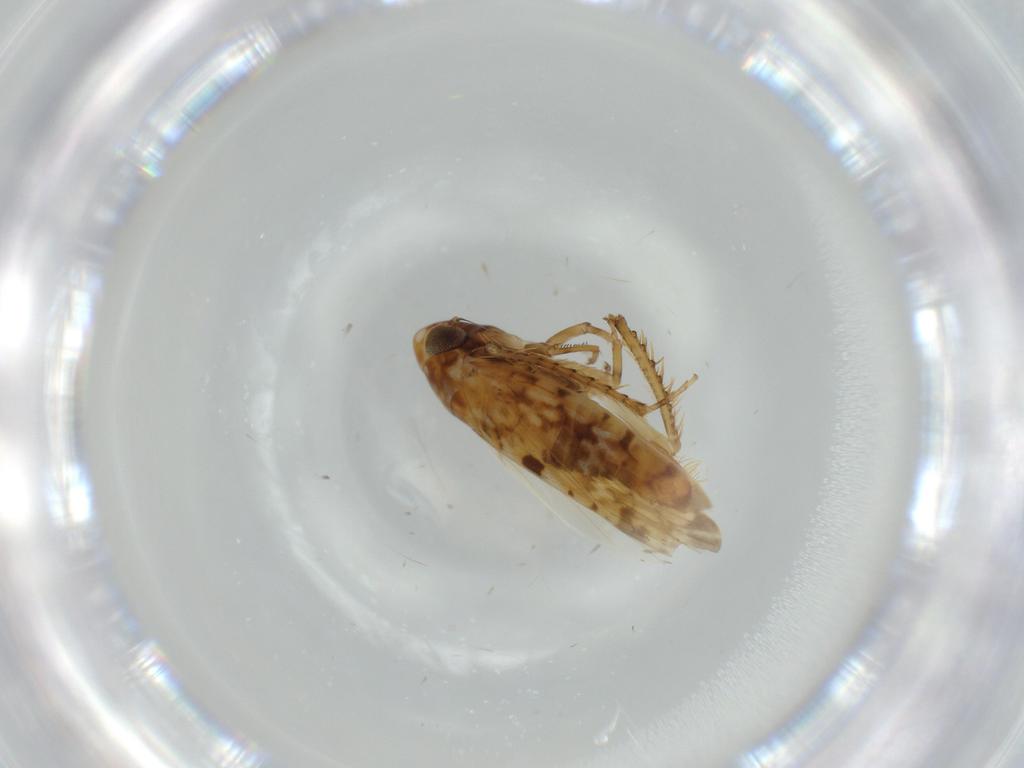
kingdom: Animalia
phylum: Arthropoda
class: Insecta
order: Hemiptera
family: Cicadellidae
